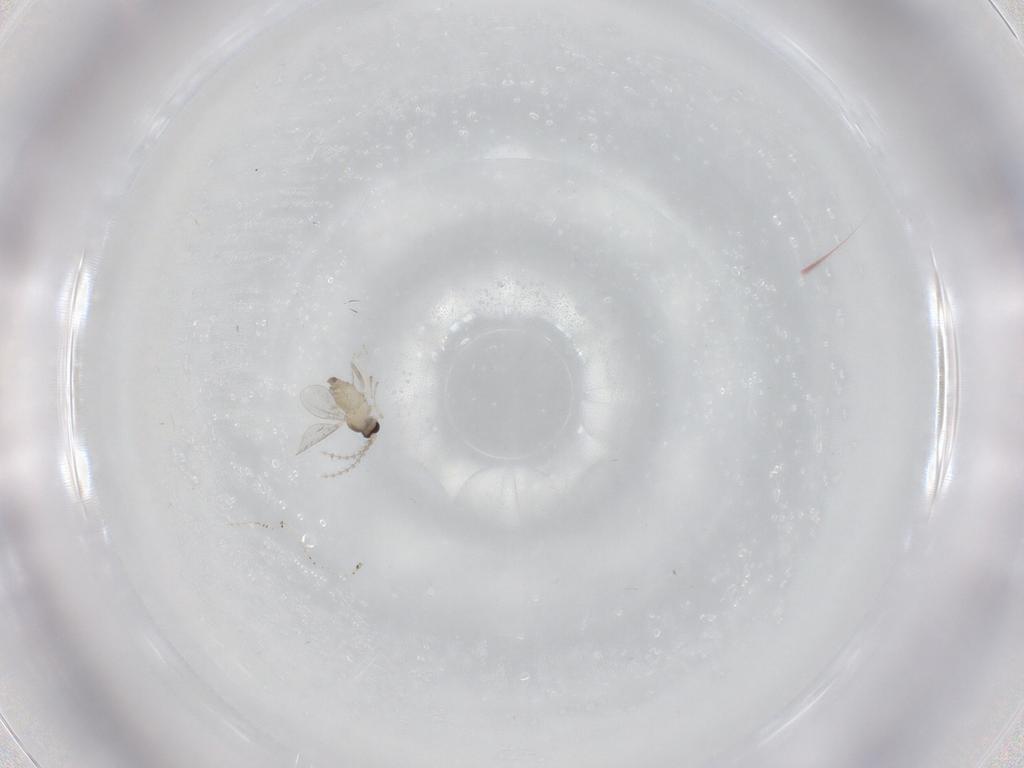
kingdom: Animalia
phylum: Arthropoda
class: Insecta
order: Diptera
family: Cecidomyiidae
